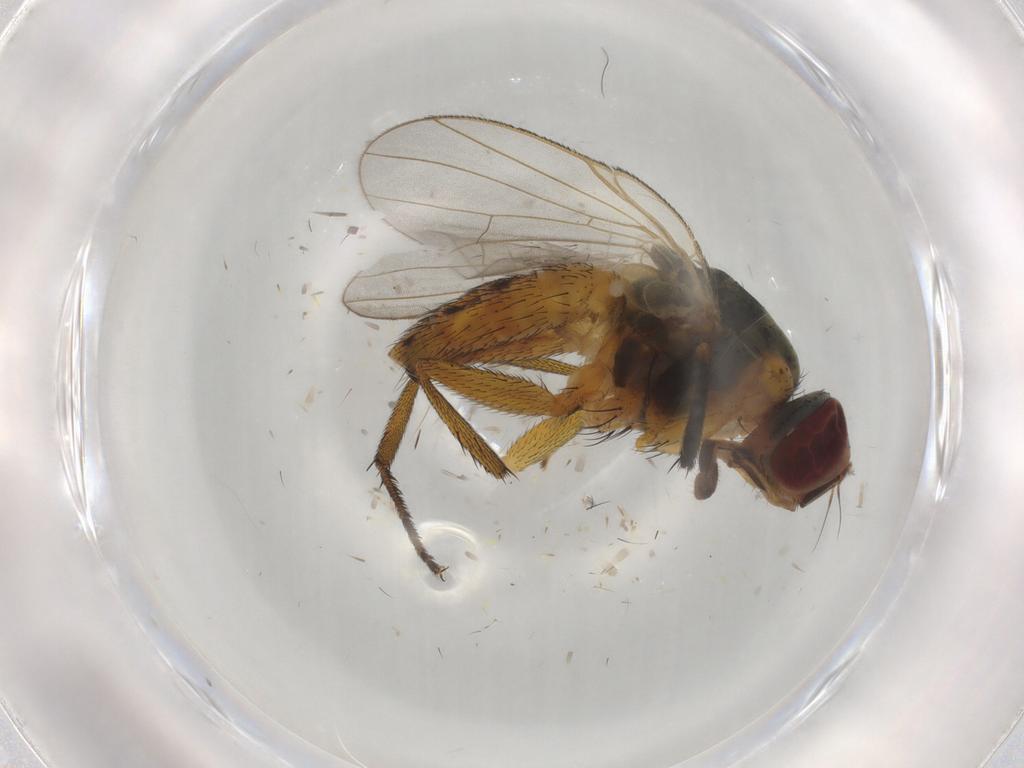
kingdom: Animalia
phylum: Arthropoda
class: Insecta
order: Diptera
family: Muscidae
